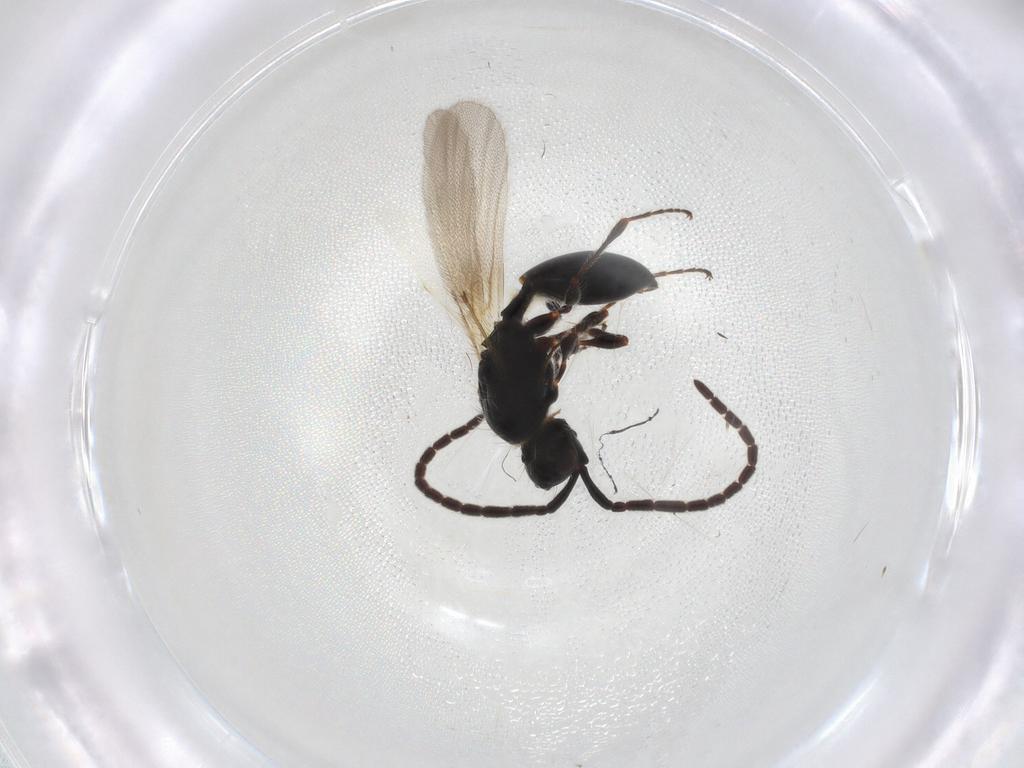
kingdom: Animalia
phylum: Arthropoda
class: Insecta
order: Hymenoptera
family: Diapriidae
